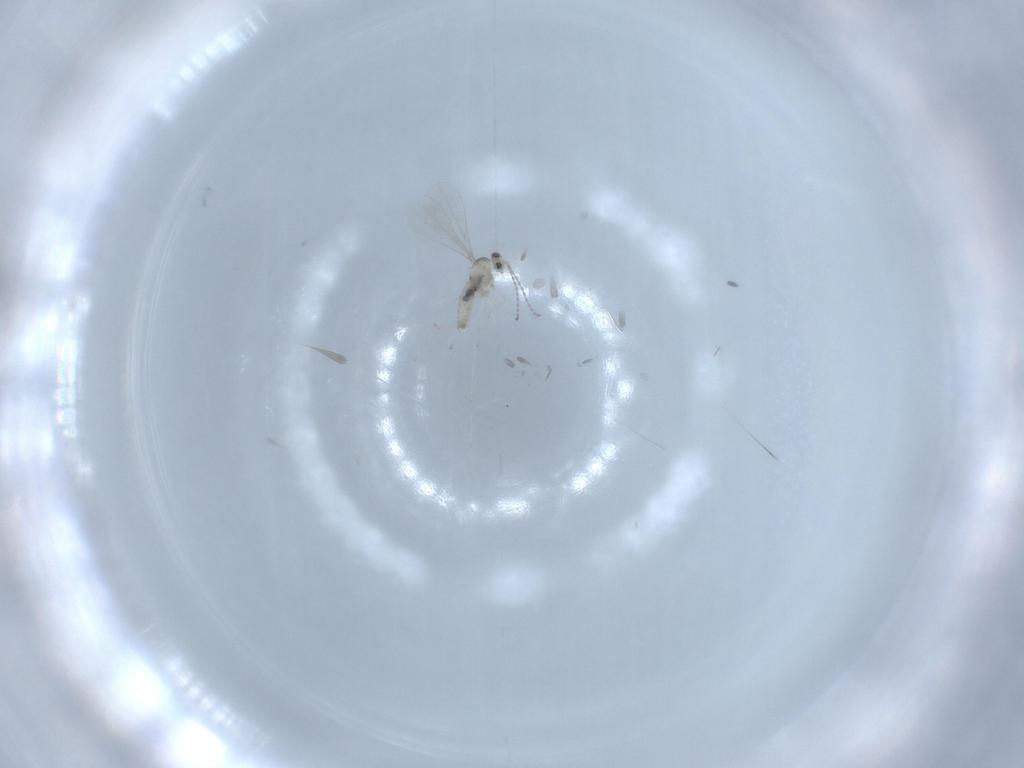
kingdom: Animalia
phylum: Arthropoda
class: Insecta
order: Diptera
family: Cecidomyiidae
